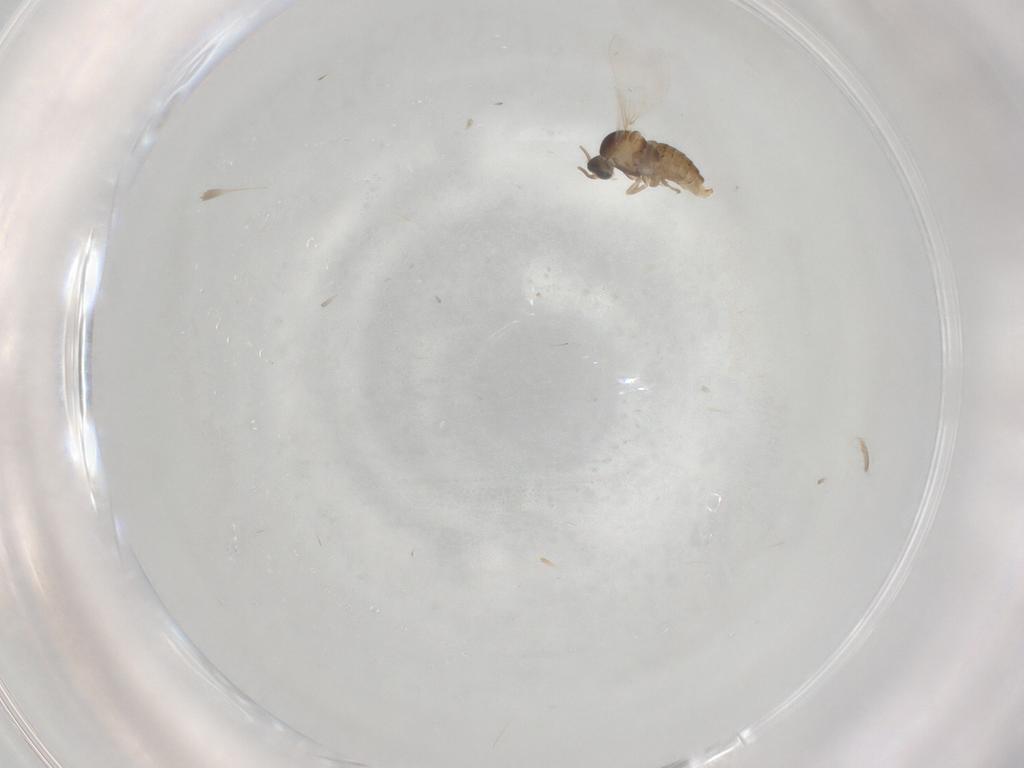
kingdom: Animalia
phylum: Arthropoda
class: Insecta
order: Diptera
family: Cecidomyiidae
